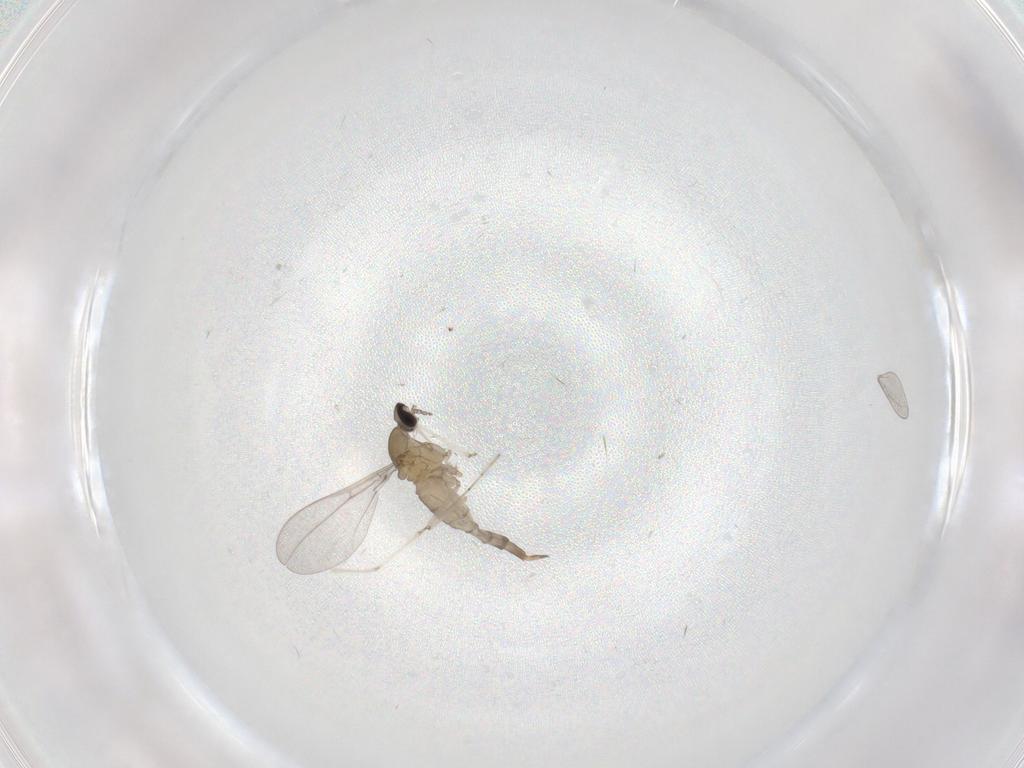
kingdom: Animalia
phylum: Arthropoda
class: Insecta
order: Diptera
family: Cecidomyiidae
